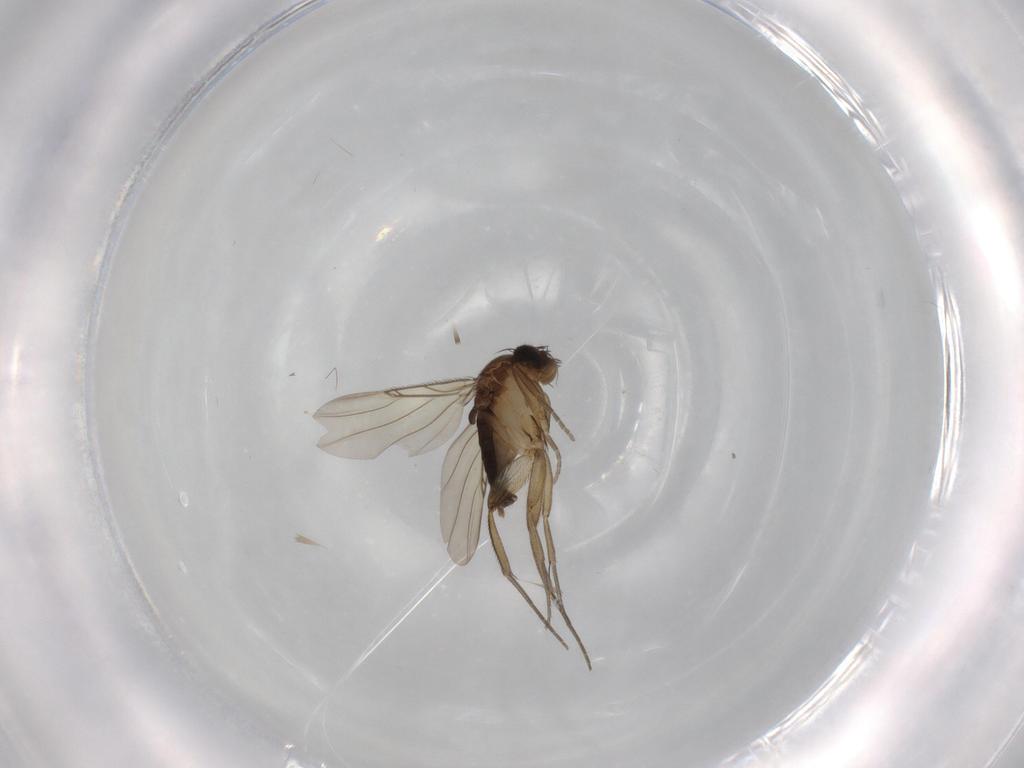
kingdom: Animalia
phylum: Arthropoda
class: Insecta
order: Diptera
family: Phoridae
